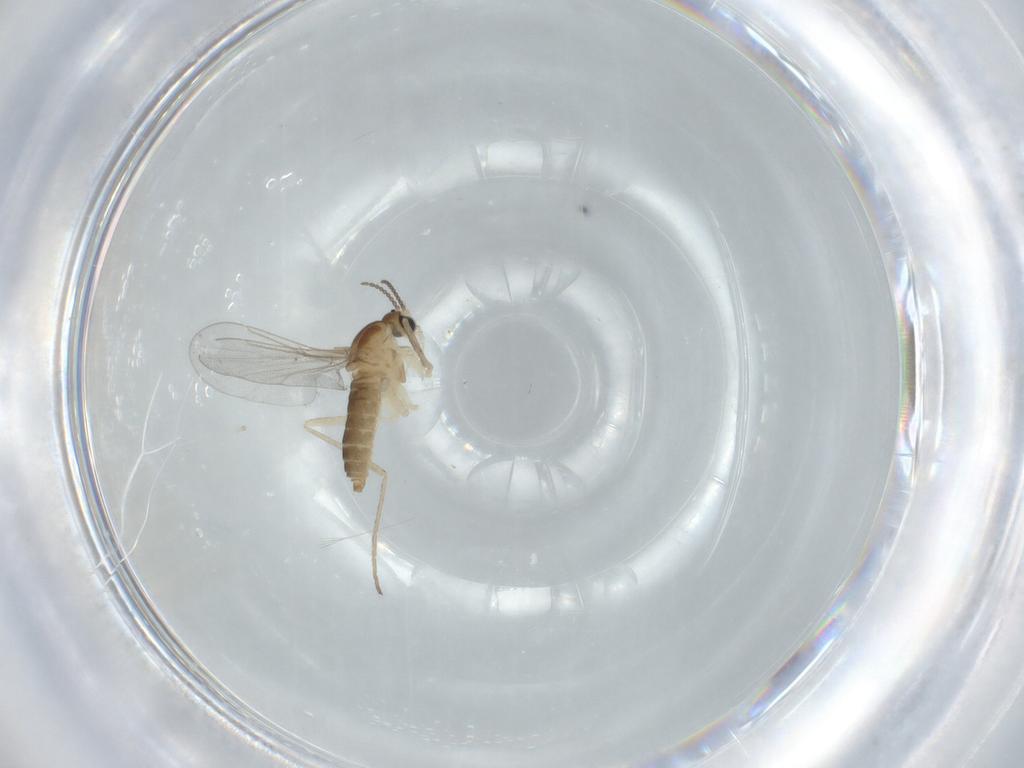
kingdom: Animalia
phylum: Arthropoda
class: Insecta
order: Diptera
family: Cecidomyiidae
